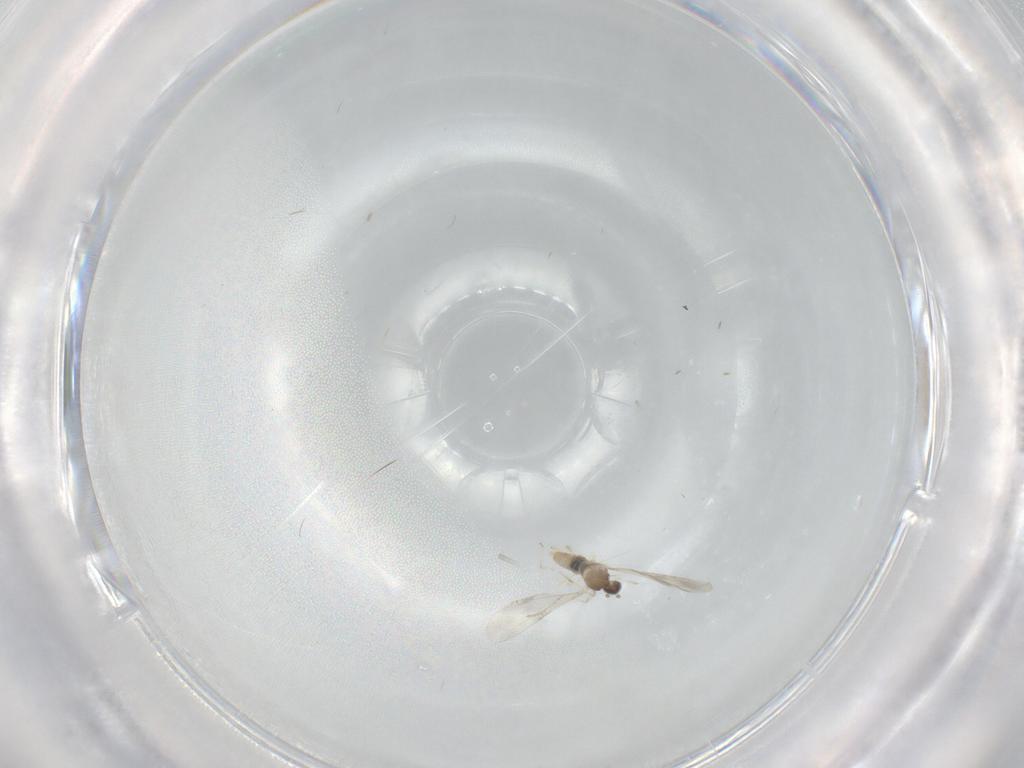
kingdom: Animalia
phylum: Arthropoda
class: Insecta
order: Diptera
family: Cecidomyiidae
